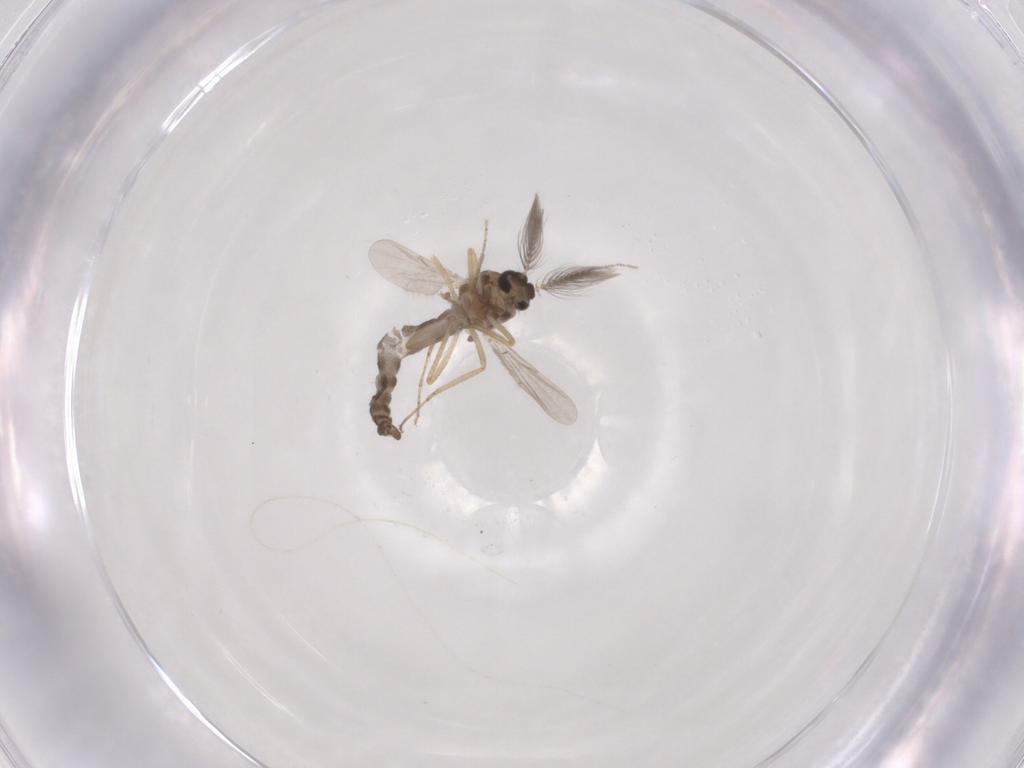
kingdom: Animalia
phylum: Arthropoda
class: Insecta
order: Diptera
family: Ceratopogonidae
